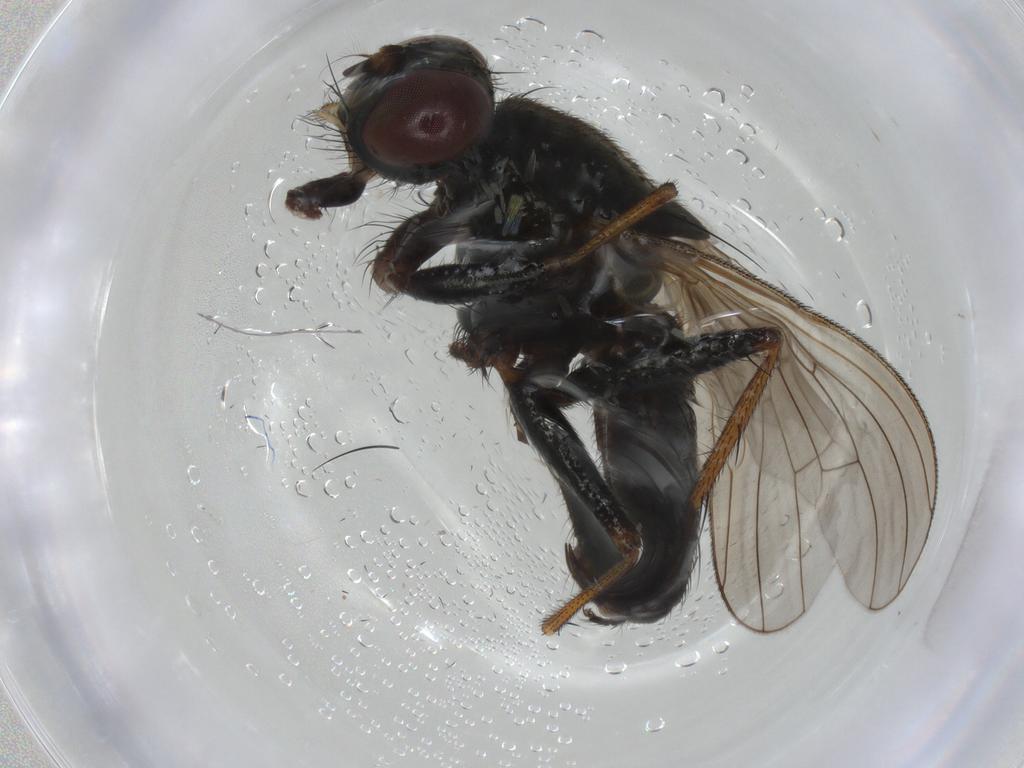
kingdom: Animalia
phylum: Arthropoda
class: Insecta
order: Diptera
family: Muscidae
